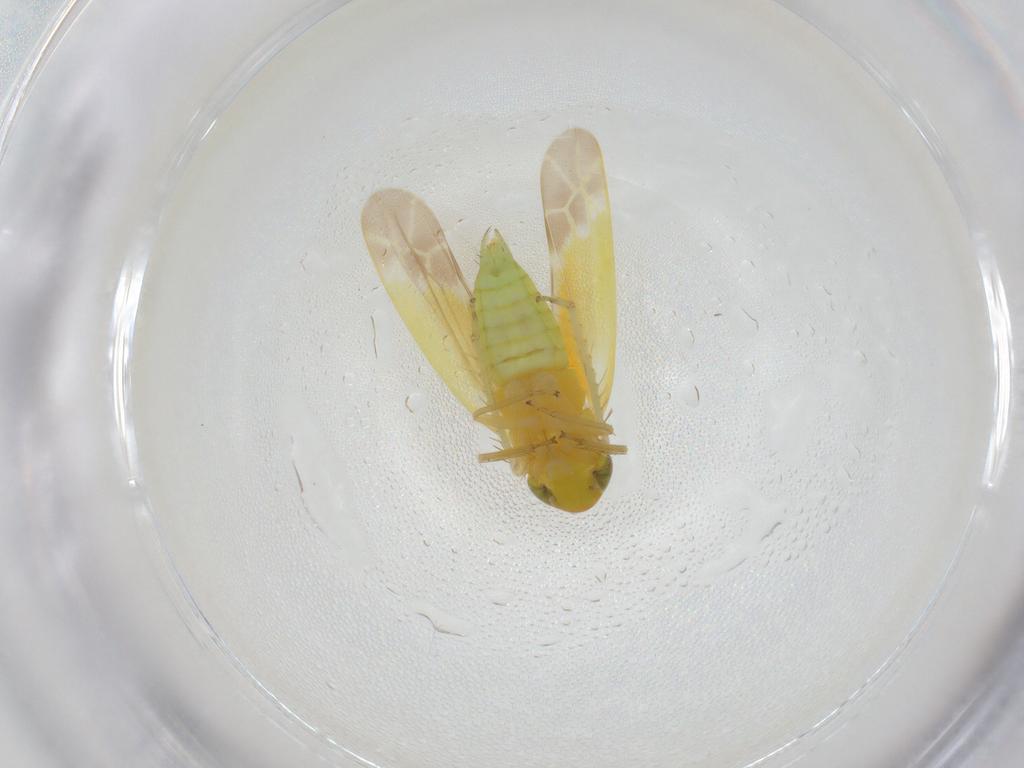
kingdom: Animalia
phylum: Arthropoda
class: Insecta
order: Hemiptera
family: Cicadellidae
